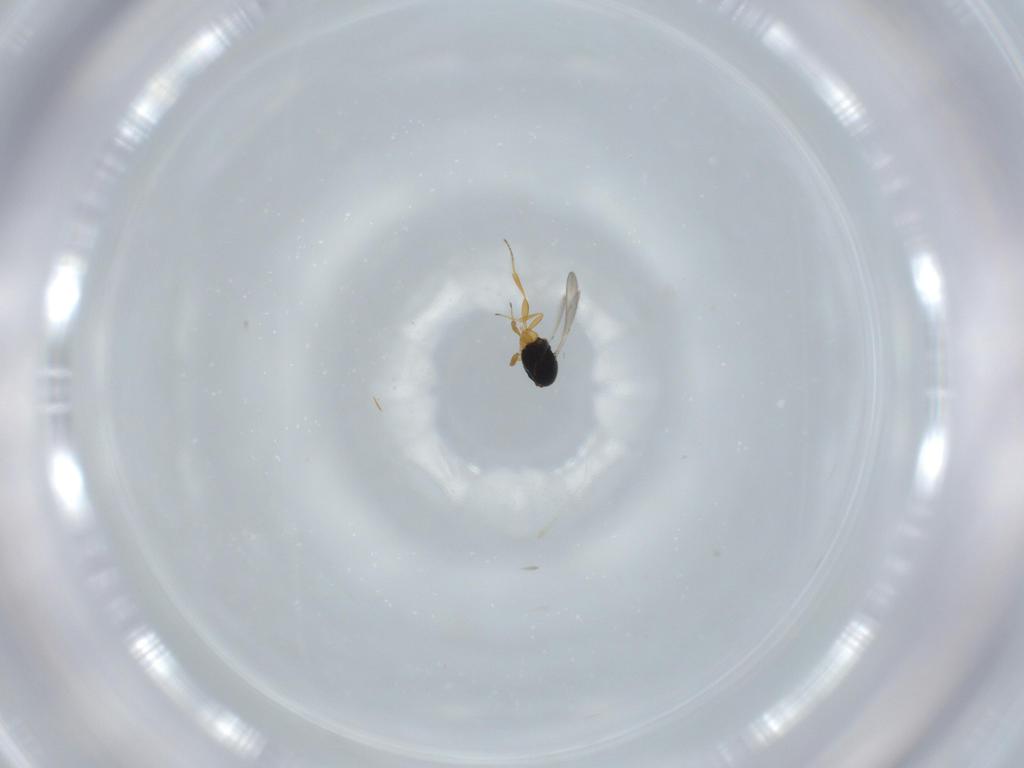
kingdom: Animalia
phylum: Arthropoda
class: Insecta
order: Hymenoptera
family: Scelionidae
